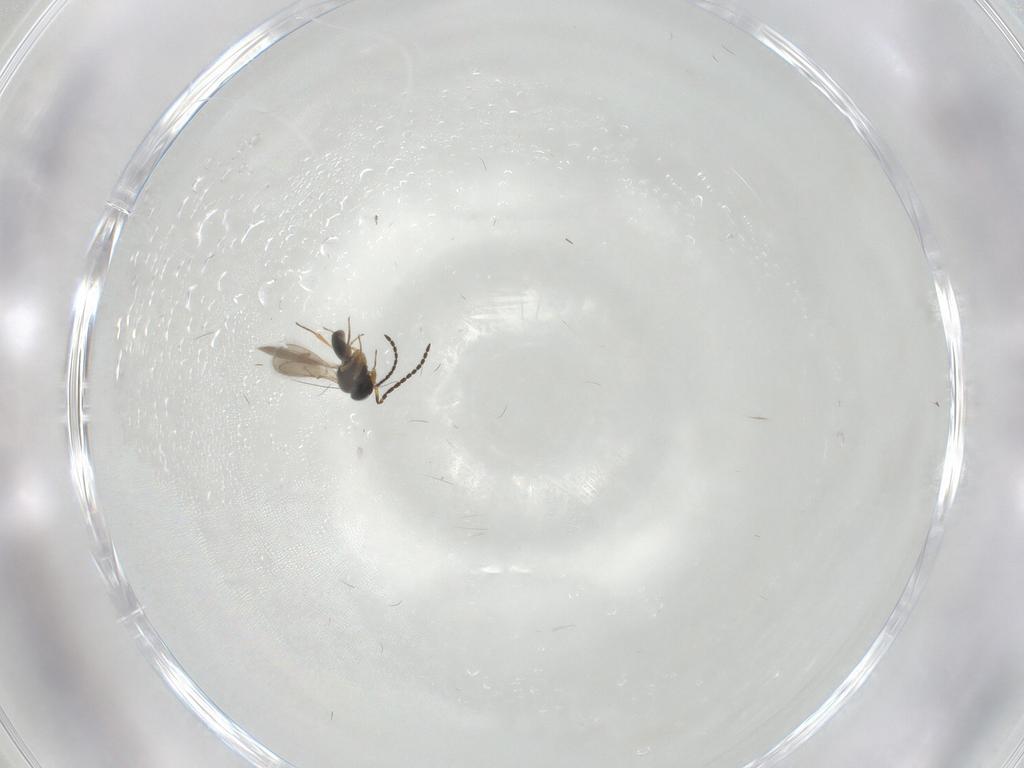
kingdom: Animalia
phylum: Arthropoda
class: Insecta
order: Hymenoptera
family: Scelionidae
